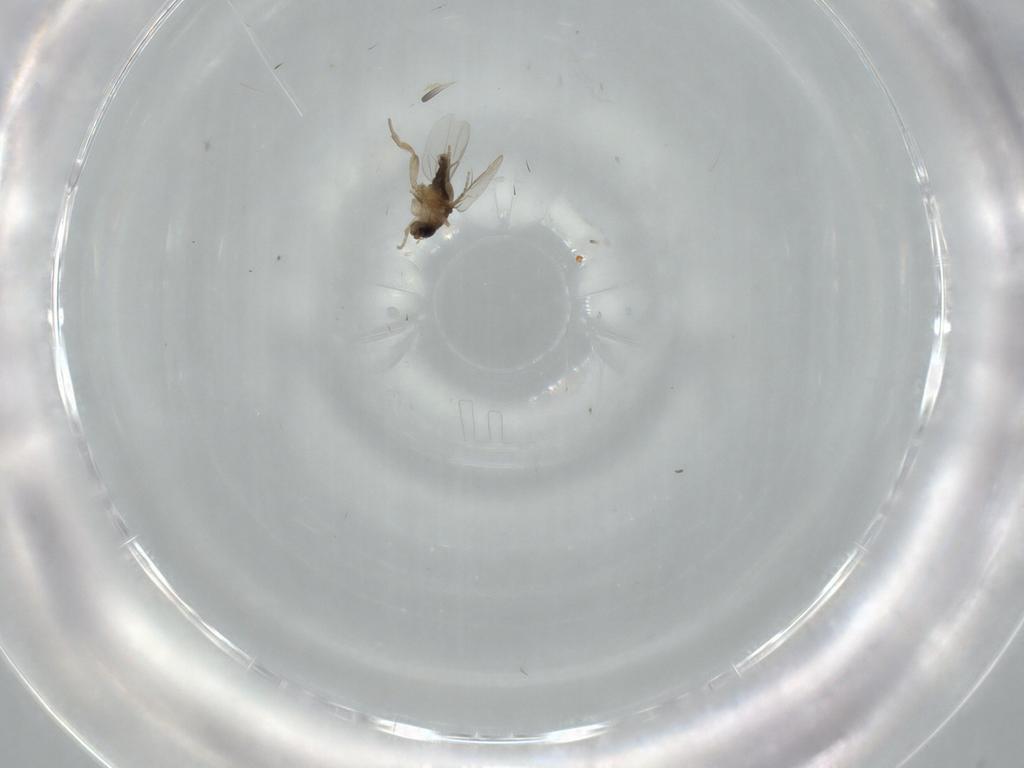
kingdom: Animalia
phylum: Arthropoda
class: Insecta
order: Diptera
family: Phoridae
